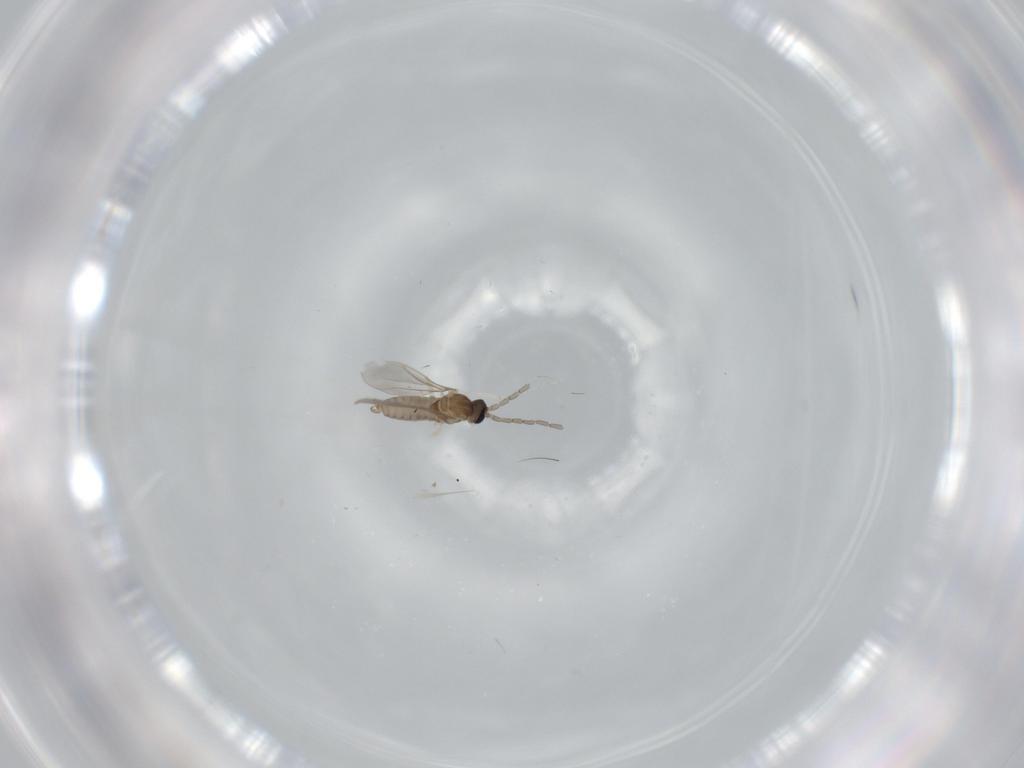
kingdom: Animalia
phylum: Arthropoda
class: Insecta
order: Diptera
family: Cecidomyiidae
